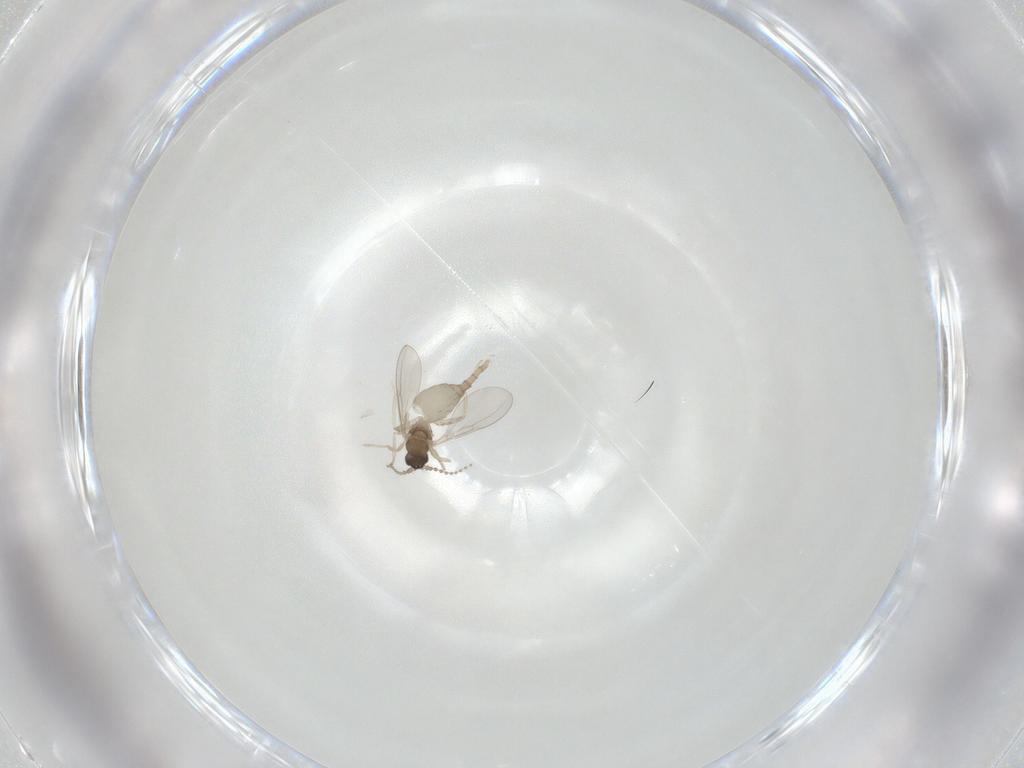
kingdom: Animalia
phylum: Arthropoda
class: Insecta
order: Diptera
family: Cecidomyiidae
